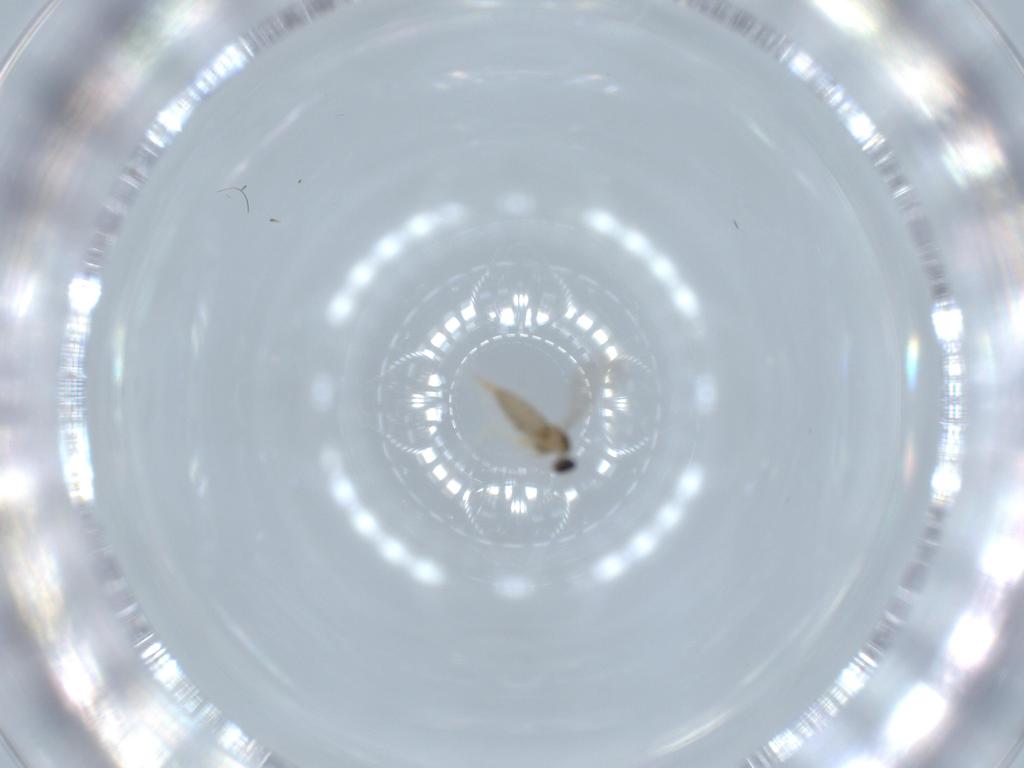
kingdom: Animalia
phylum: Arthropoda
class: Insecta
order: Diptera
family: Cecidomyiidae
